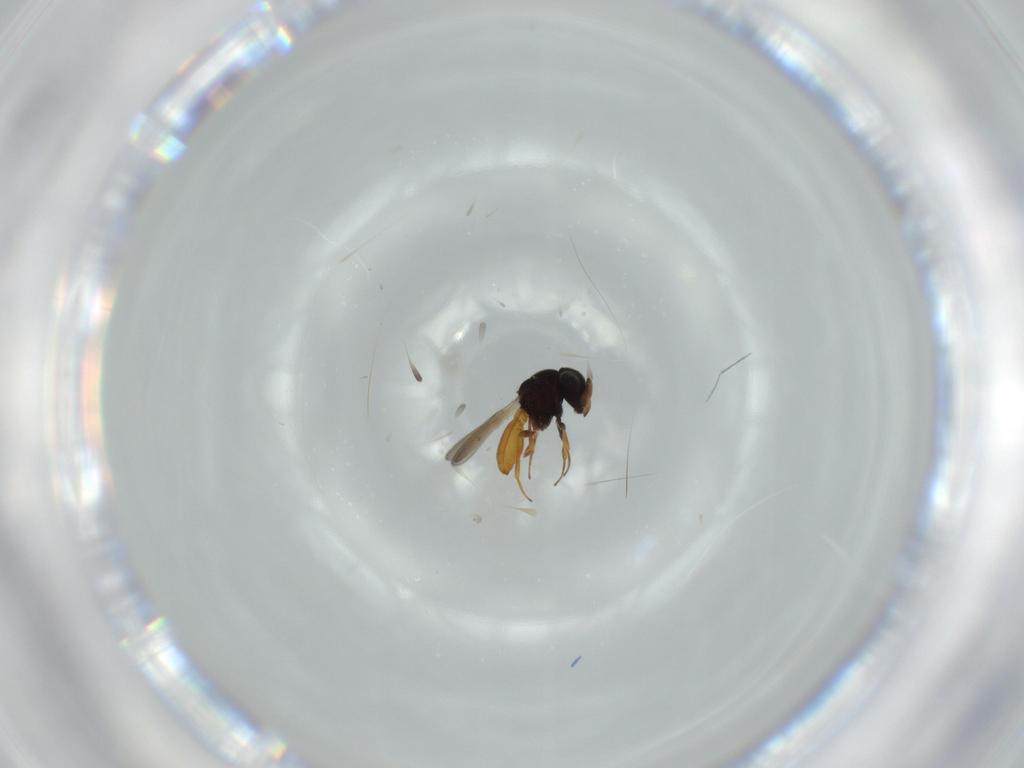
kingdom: Animalia
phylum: Arthropoda
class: Insecta
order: Hymenoptera
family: Scelionidae
